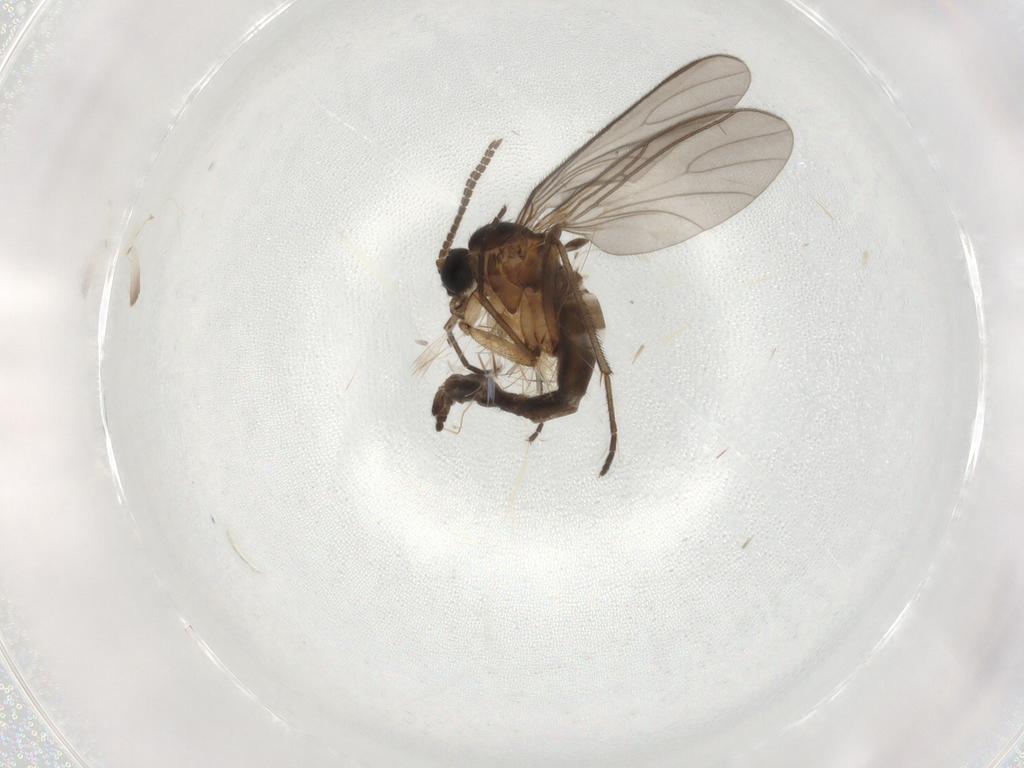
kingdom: Animalia
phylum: Arthropoda
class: Insecta
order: Diptera
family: Sciaridae
